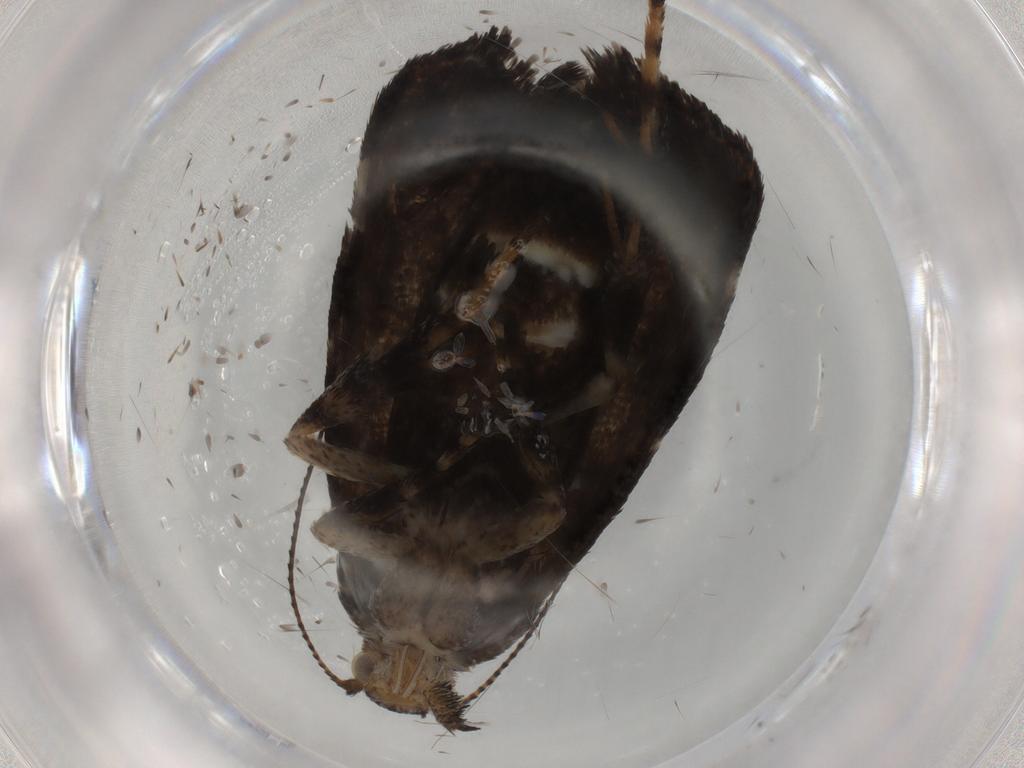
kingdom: Animalia
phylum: Arthropoda
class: Insecta
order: Lepidoptera
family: Choreutidae
